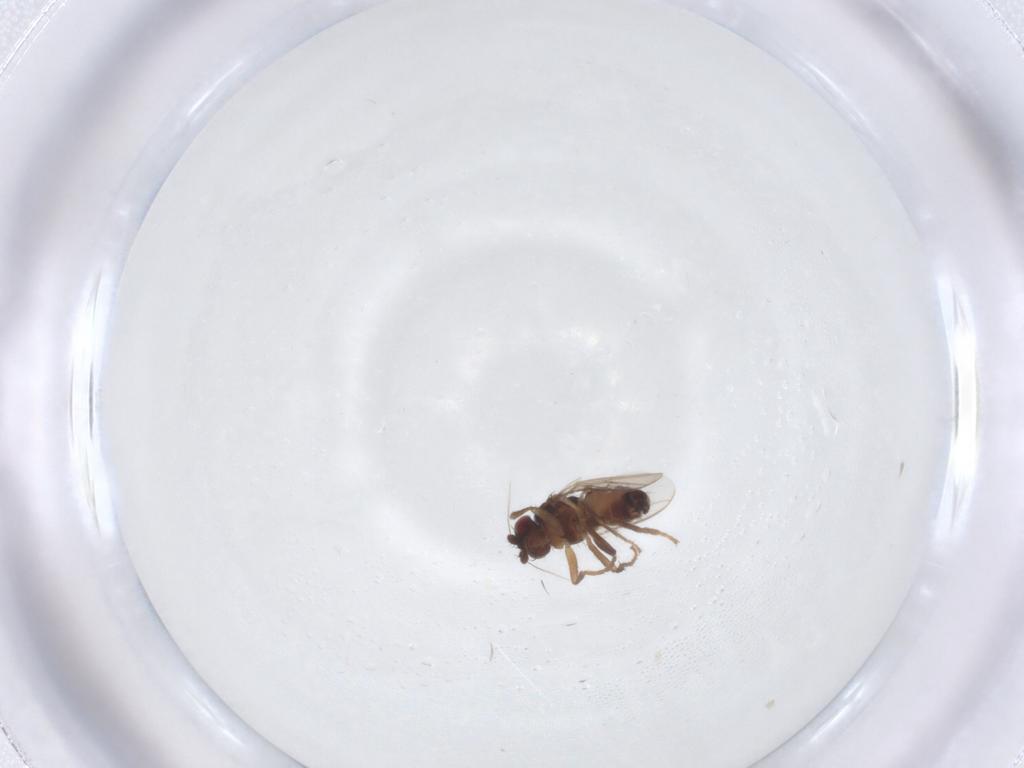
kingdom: Animalia
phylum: Arthropoda
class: Insecta
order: Diptera
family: Sphaeroceridae
